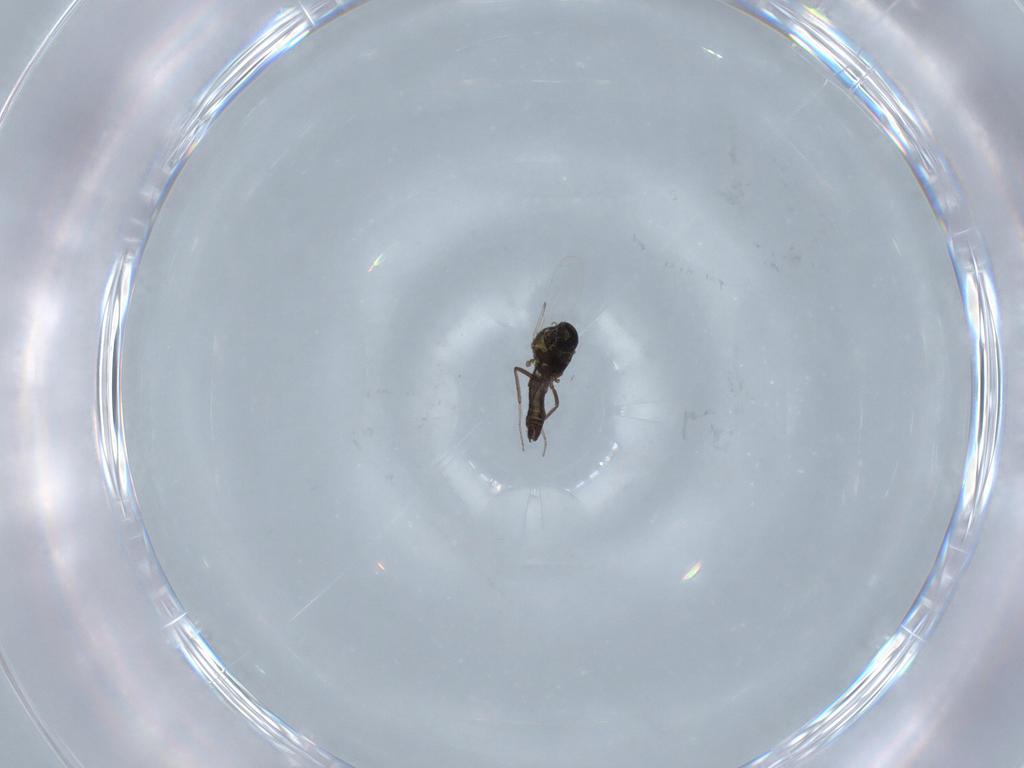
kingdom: Animalia
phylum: Arthropoda
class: Insecta
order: Diptera
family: Ceratopogonidae
